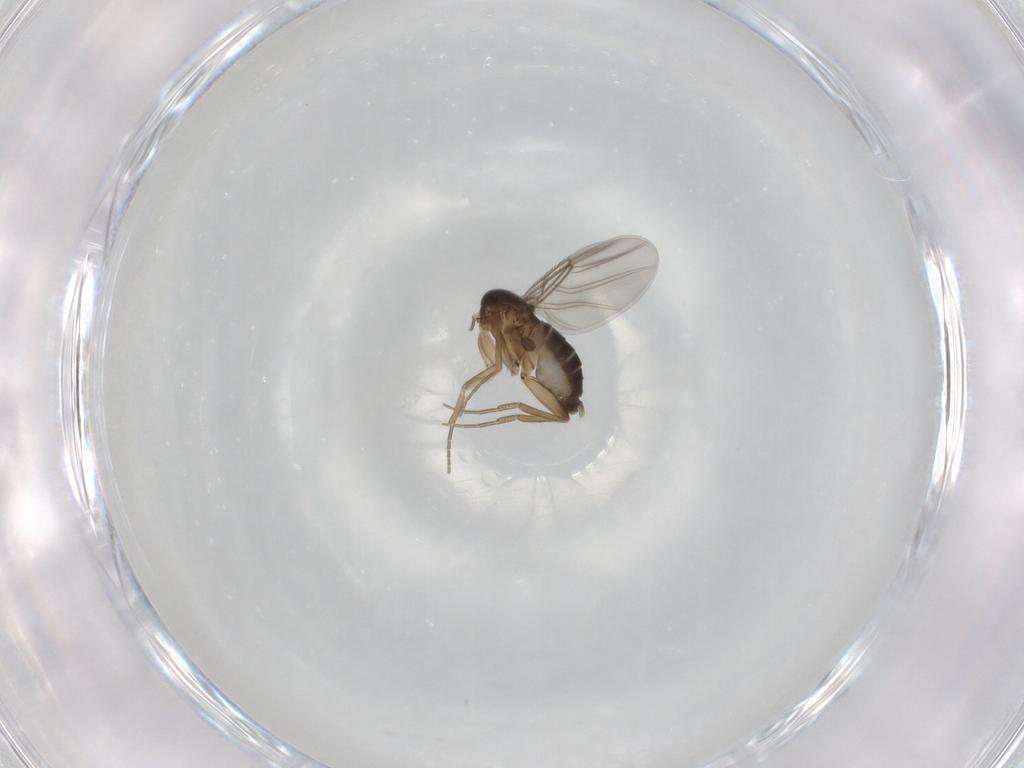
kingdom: Animalia
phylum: Arthropoda
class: Insecta
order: Diptera
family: Phoridae
